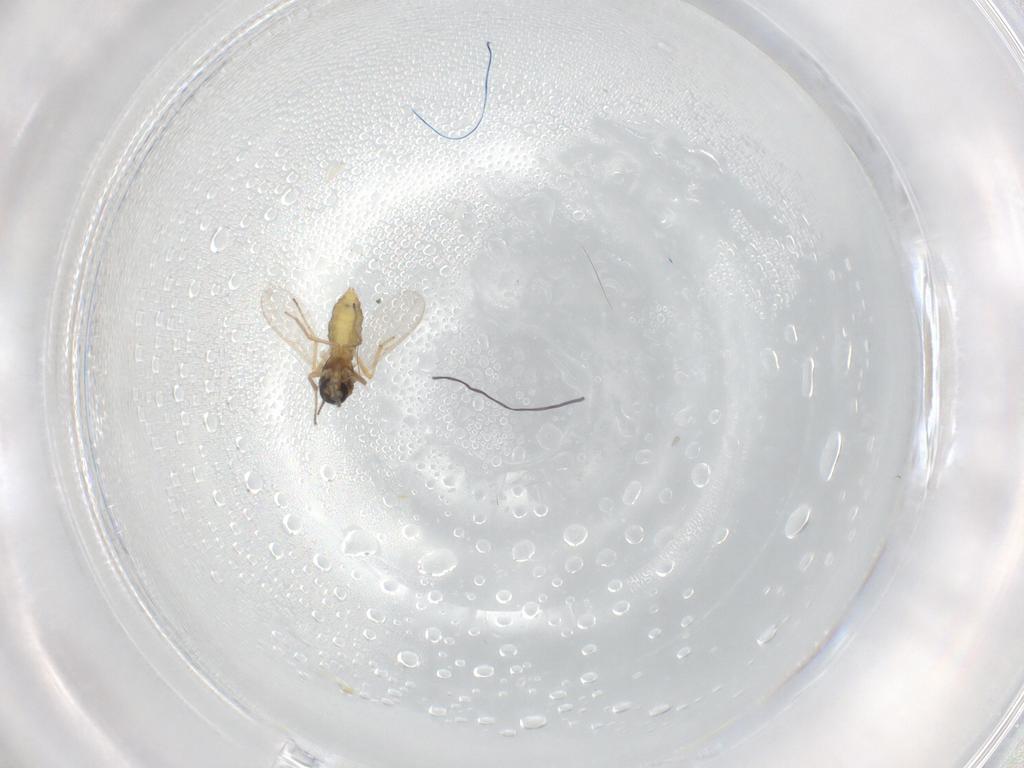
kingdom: Animalia
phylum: Arthropoda
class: Insecta
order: Diptera
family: Ceratopogonidae
